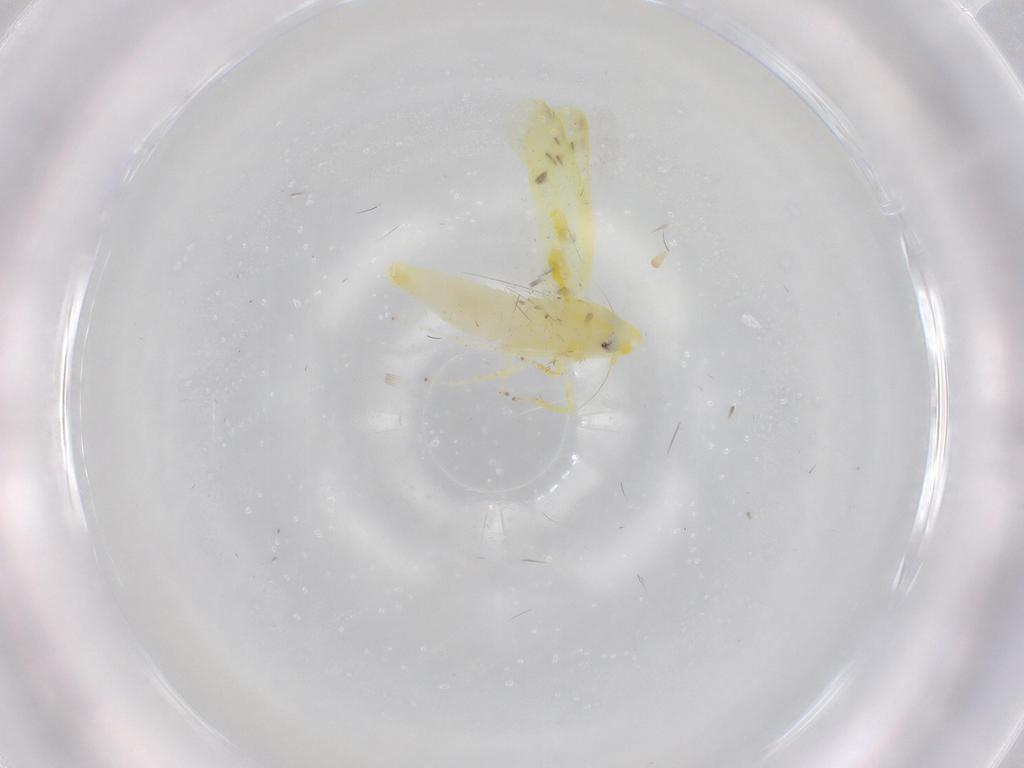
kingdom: Animalia
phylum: Arthropoda
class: Insecta
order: Hemiptera
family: Cicadellidae
